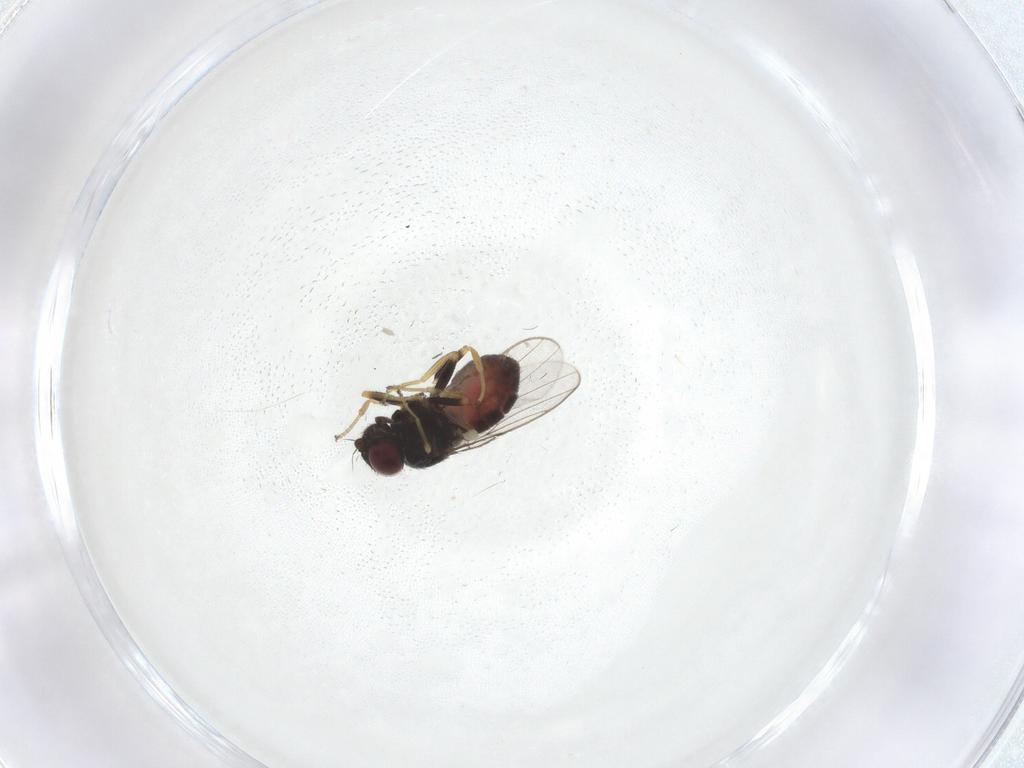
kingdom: Animalia
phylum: Arthropoda
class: Insecta
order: Diptera
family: Chloropidae
